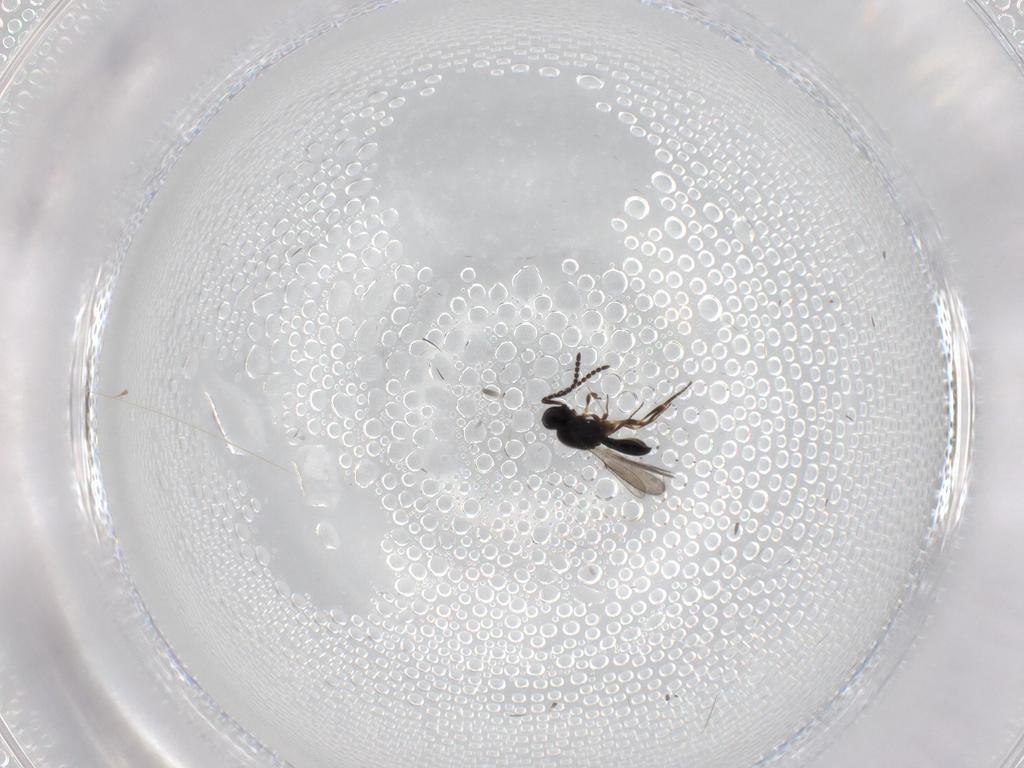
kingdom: Animalia
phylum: Arthropoda
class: Insecta
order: Hymenoptera
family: Scelionidae
